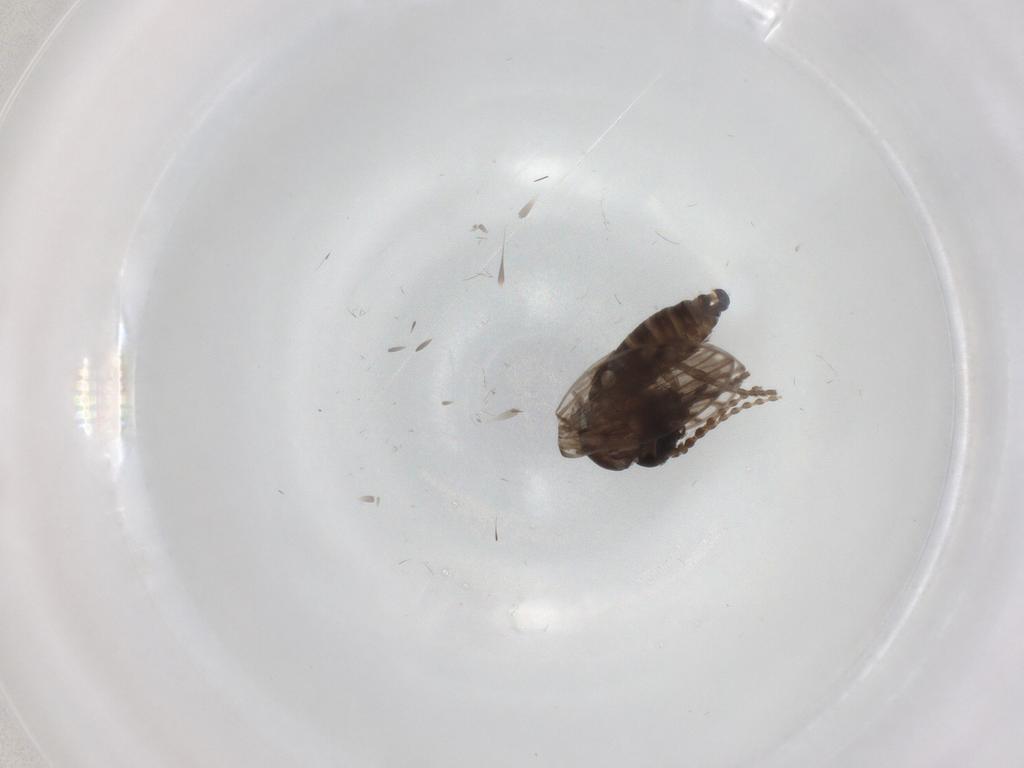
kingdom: Animalia
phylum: Arthropoda
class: Insecta
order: Diptera
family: Psychodidae
